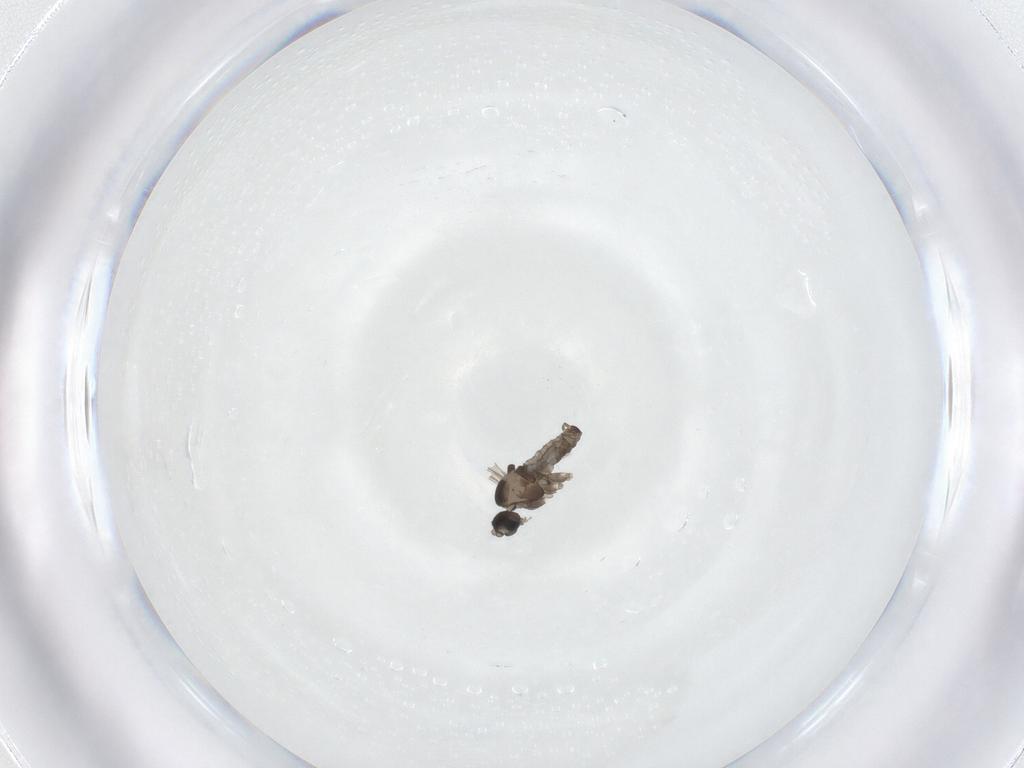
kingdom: Animalia
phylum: Arthropoda
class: Insecta
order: Diptera
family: Cecidomyiidae
